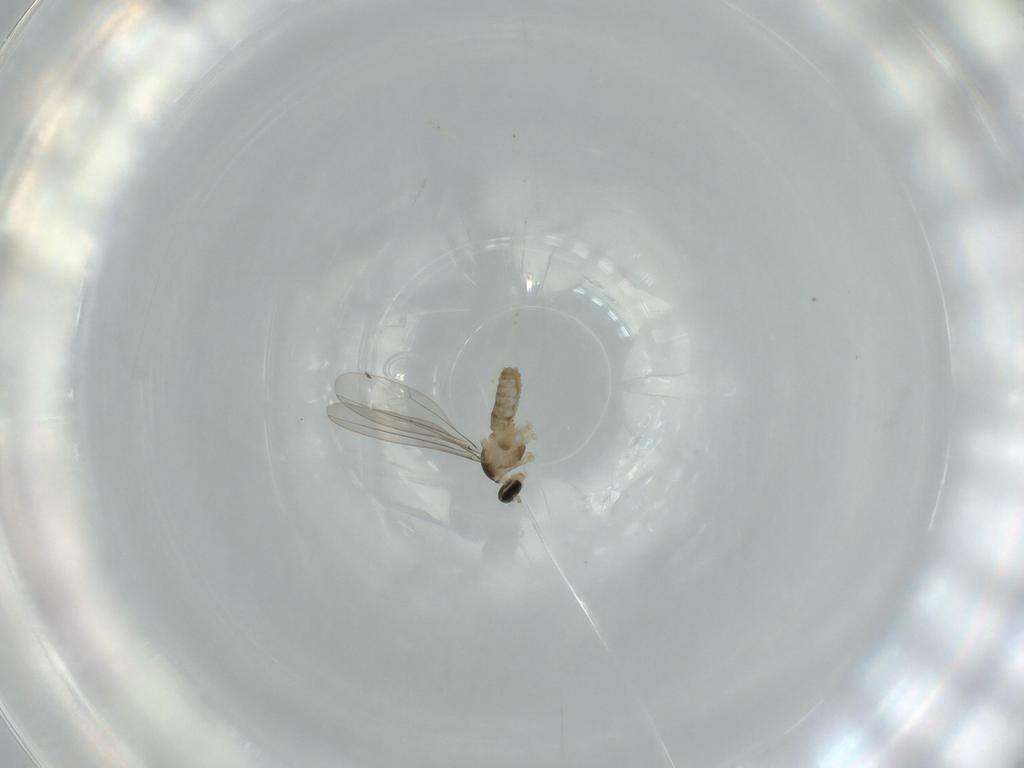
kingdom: Animalia
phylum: Arthropoda
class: Insecta
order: Diptera
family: Cecidomyiidae
